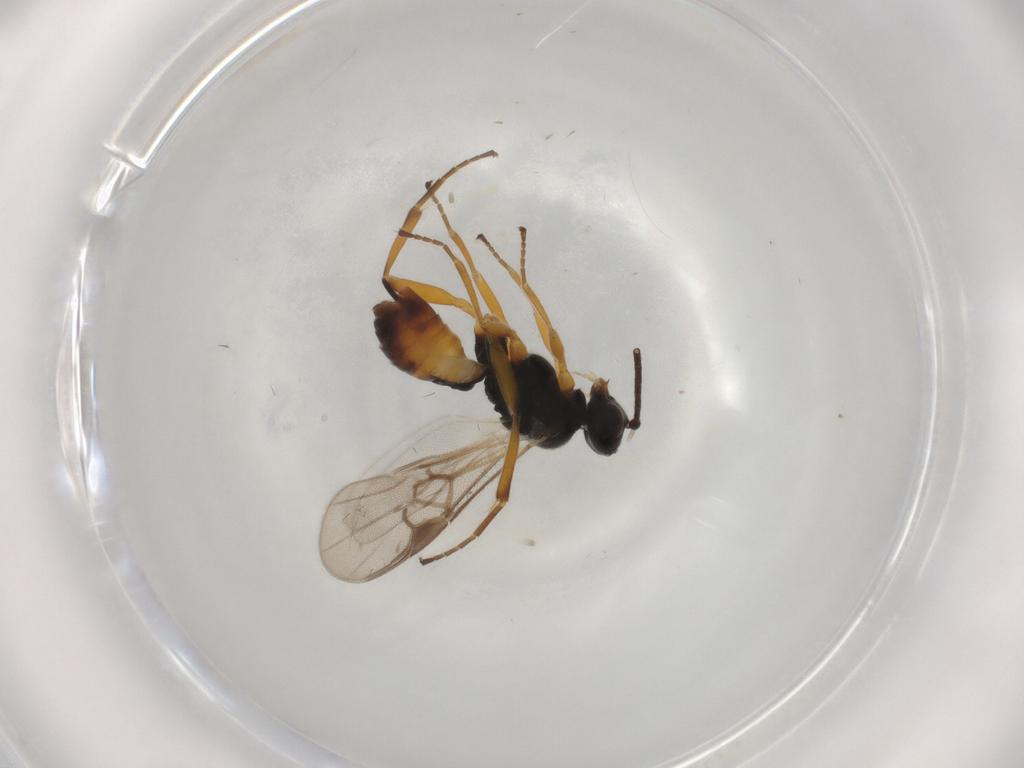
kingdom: Animalia
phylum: Arthropoda
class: Insecta
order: Hymenoptera
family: Braconidae
